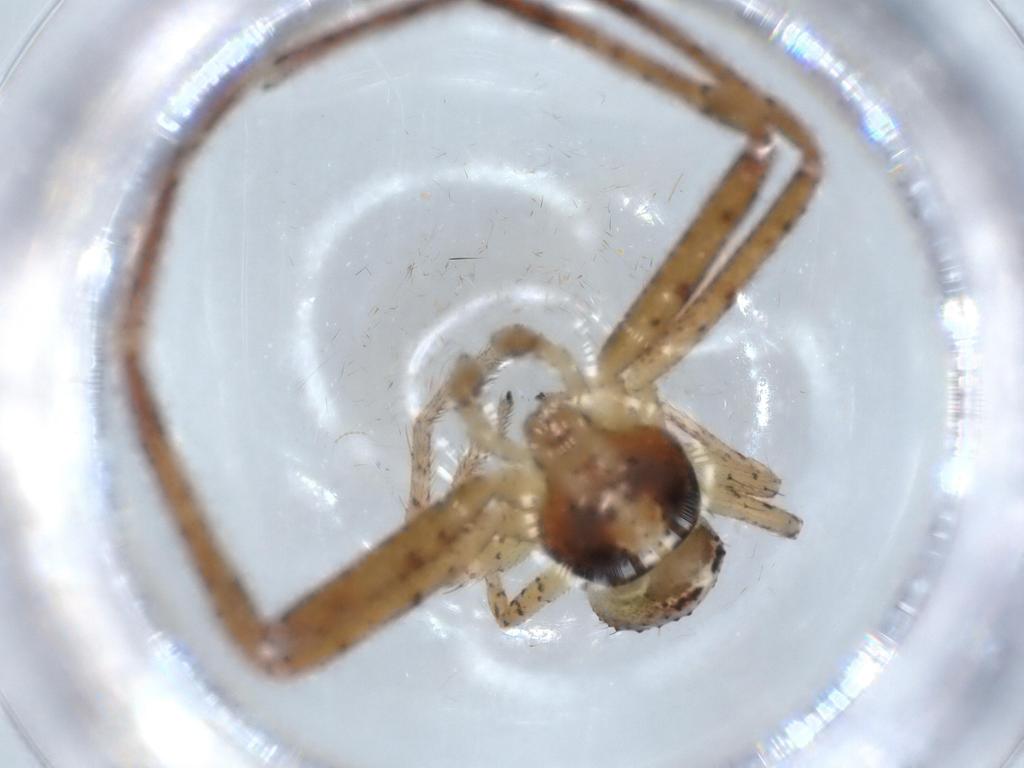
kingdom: Animalia
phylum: Arthropoda
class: Arachnida
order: Araneae
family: Thomisidae
